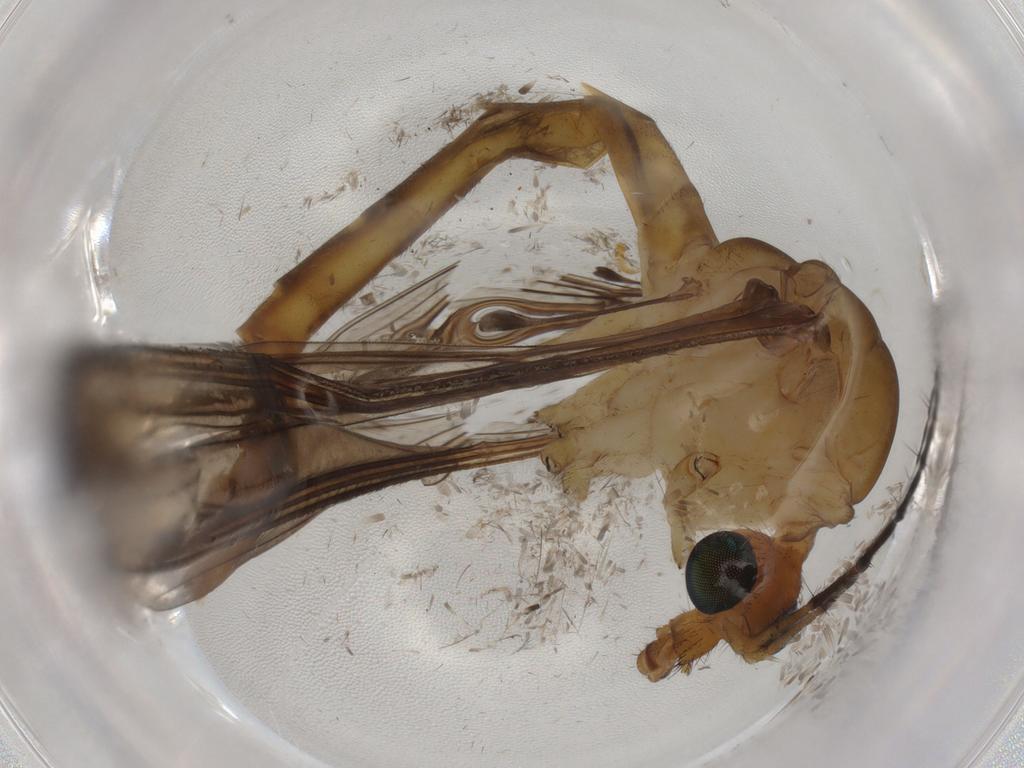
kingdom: Animalia
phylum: Arthropoda
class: Insecta
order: Diptera
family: Cecidomyiidae
